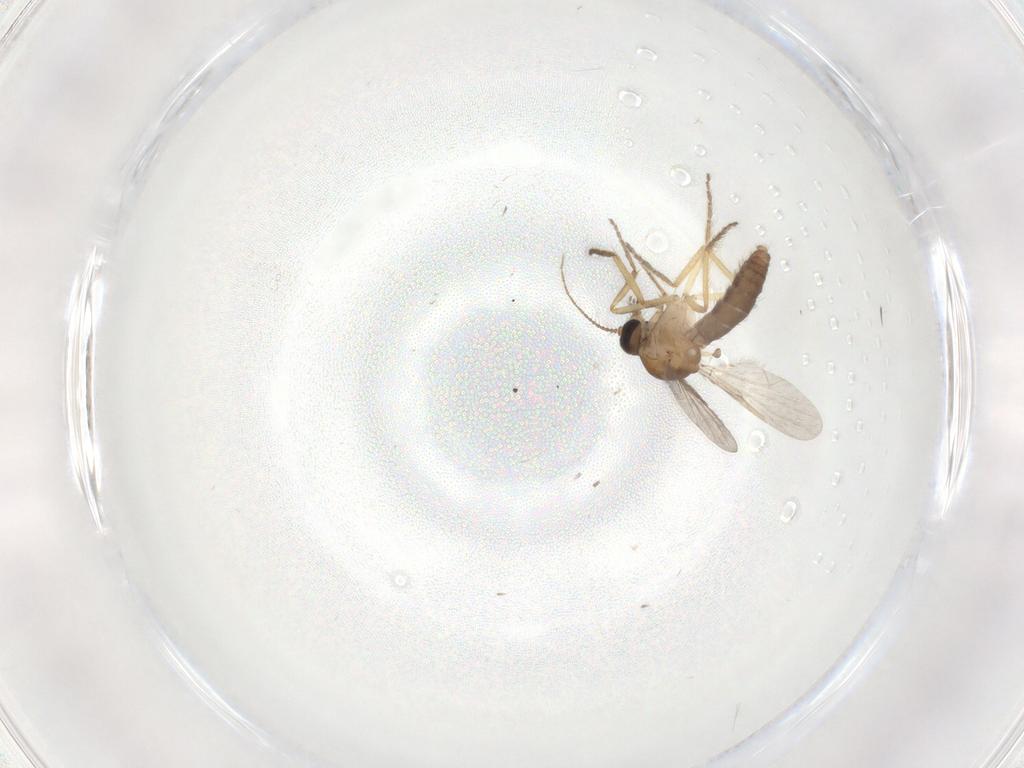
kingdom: Animalia
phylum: Arthropoda
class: Insecta
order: Diptera
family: Ceratopogonidae
